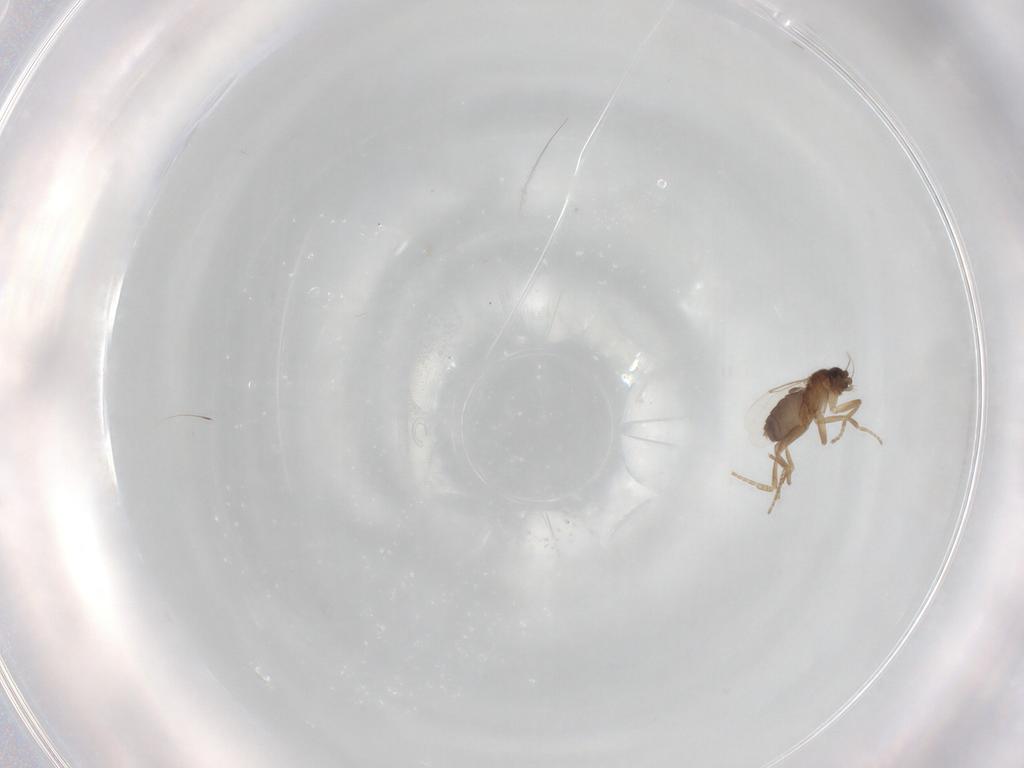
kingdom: Animalia
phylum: Arthropoda
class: Insecta
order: Diptera
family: Phoridae
